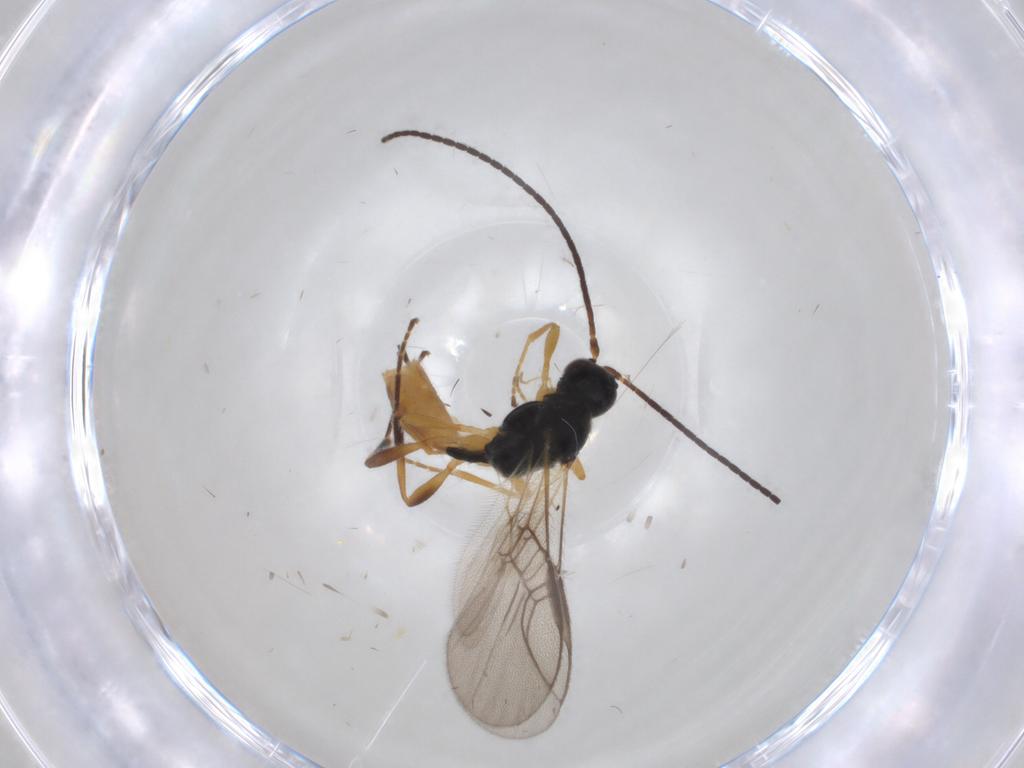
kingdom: Animalia
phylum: Arthropoda
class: Insecta
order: Hymenoptera
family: Braconidae
